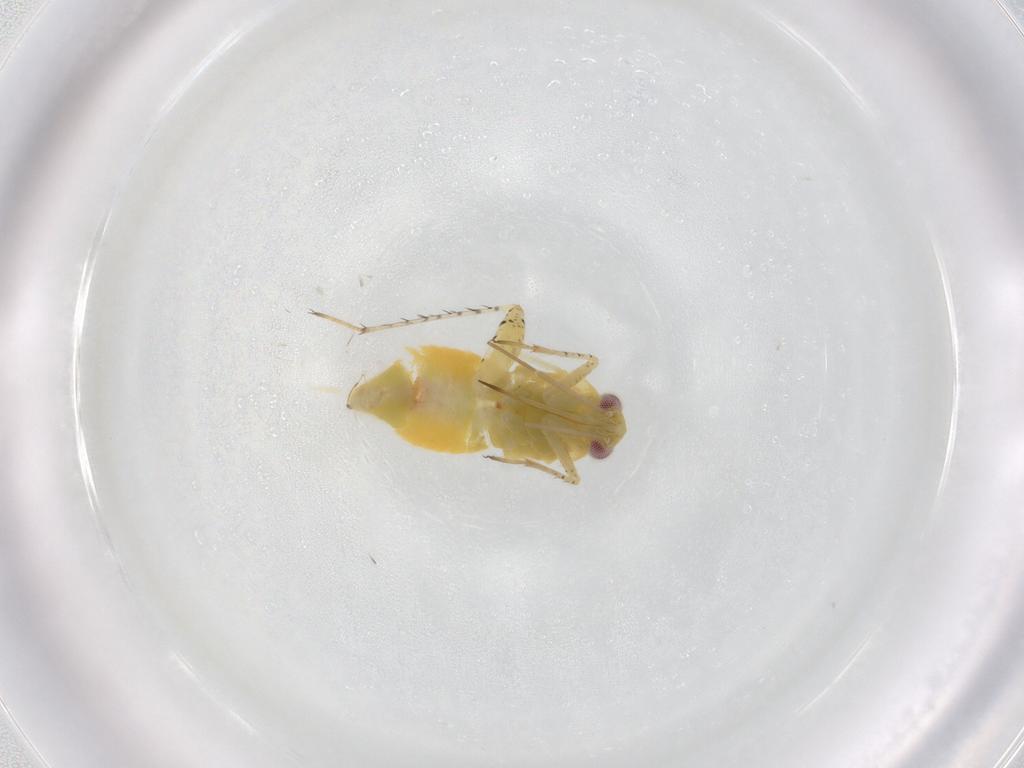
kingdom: Animalia
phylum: Arthropoda
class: Insecta
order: Hemiptera
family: Miridae
